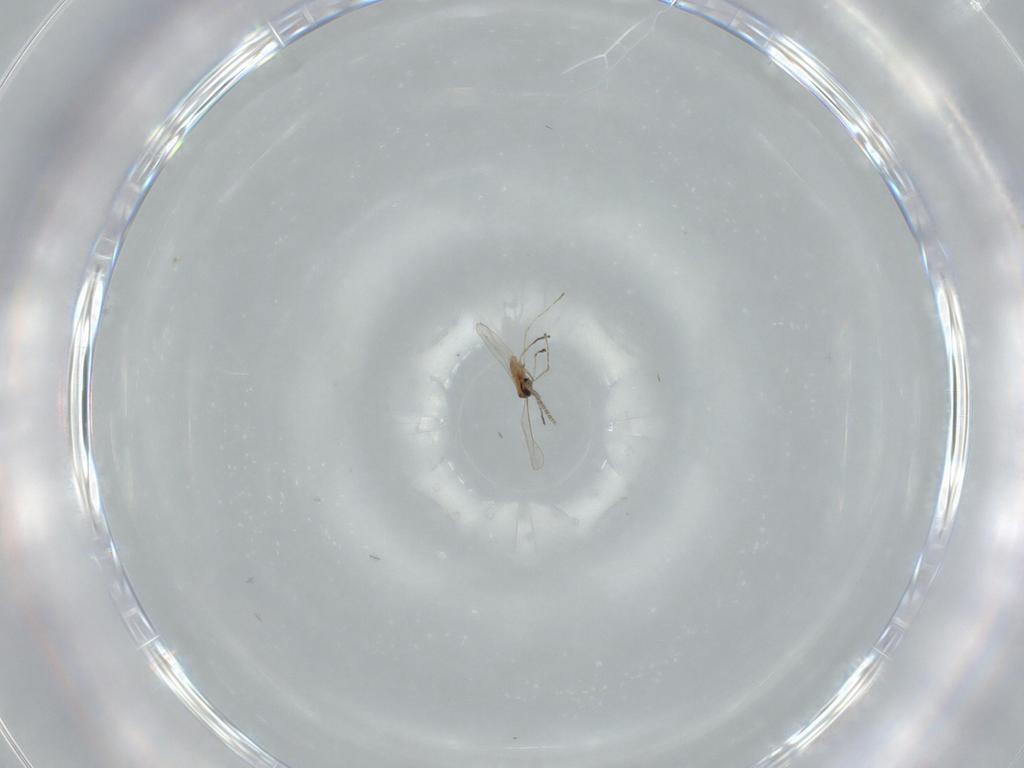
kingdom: Animalia
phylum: Arthropoda
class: Insecta
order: Diptera
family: Cecidomyiidae
